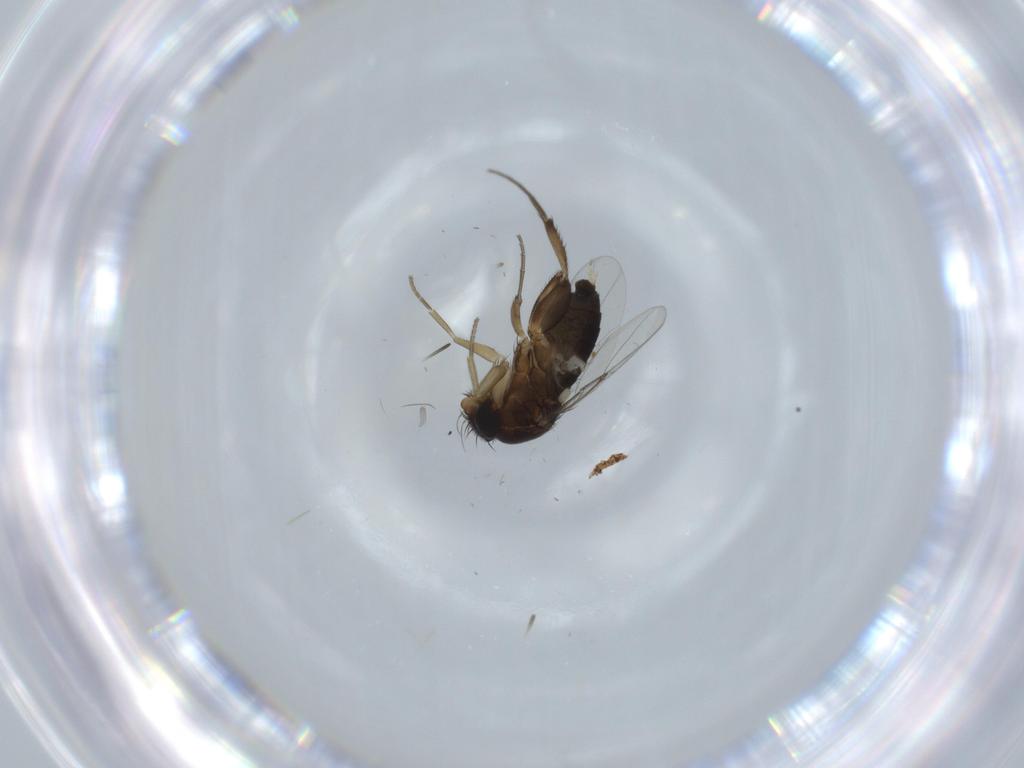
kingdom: Animalia
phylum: Arthropoda
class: Insecta
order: Diptera
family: Phoridae
